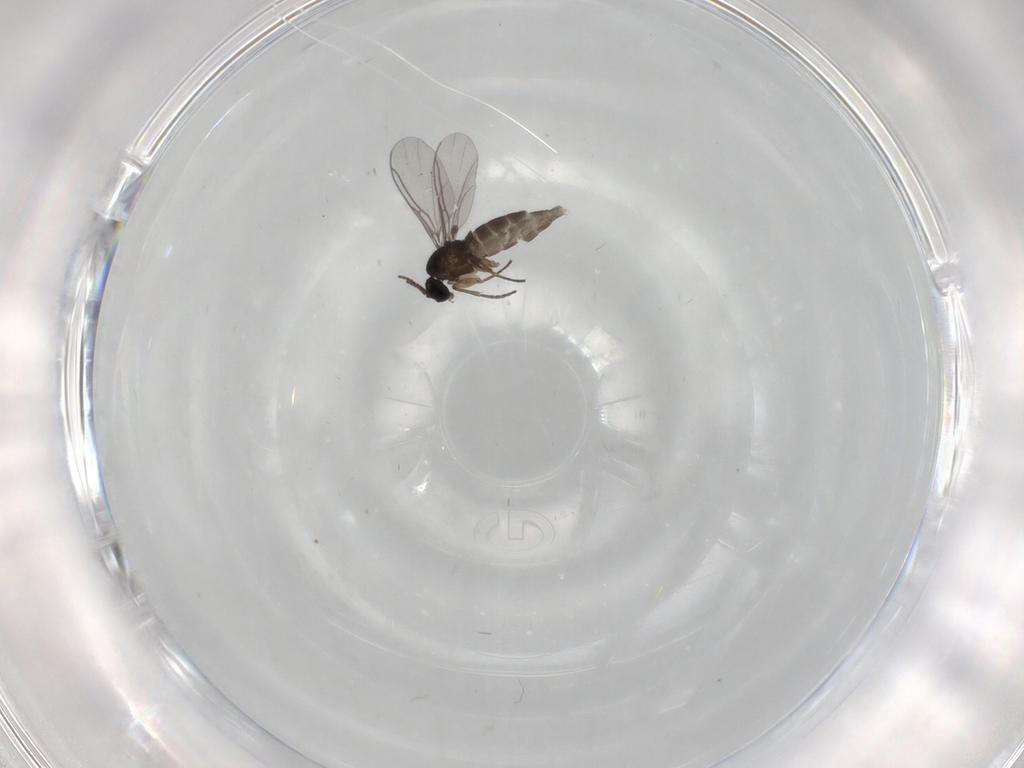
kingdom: Animalia
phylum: Arthropoda
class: Insecta
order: Diptera
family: Sciaridae
